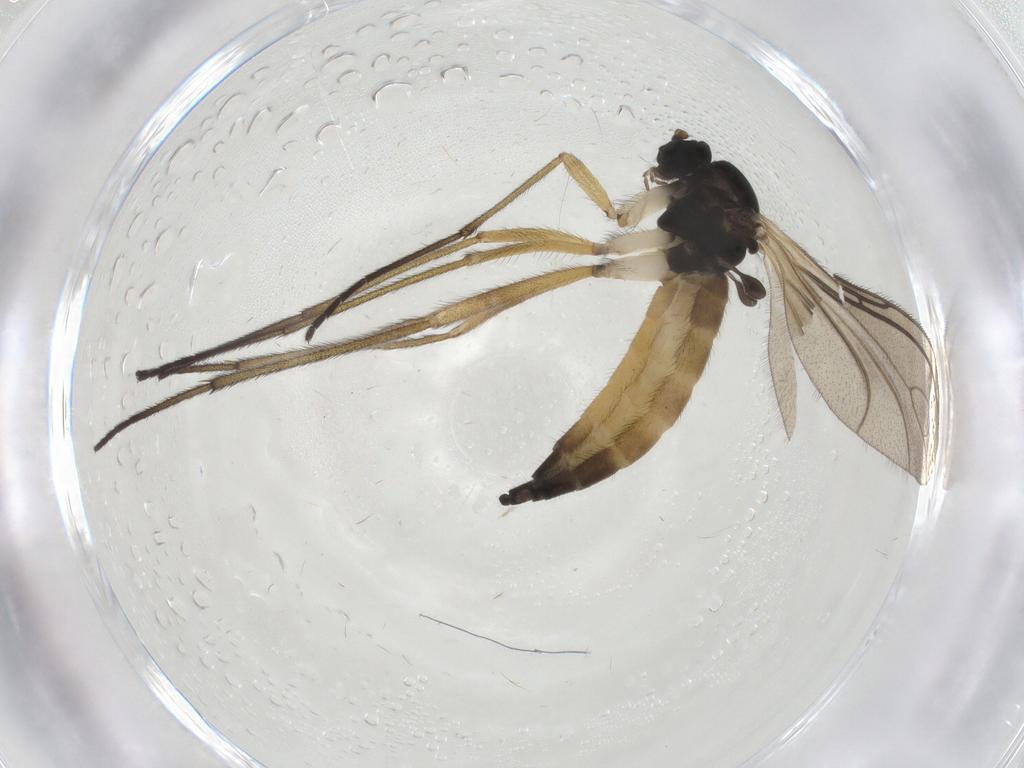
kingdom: Animalia
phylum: Arthropoda
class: Insecta
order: Diptera
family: Sciaridae
